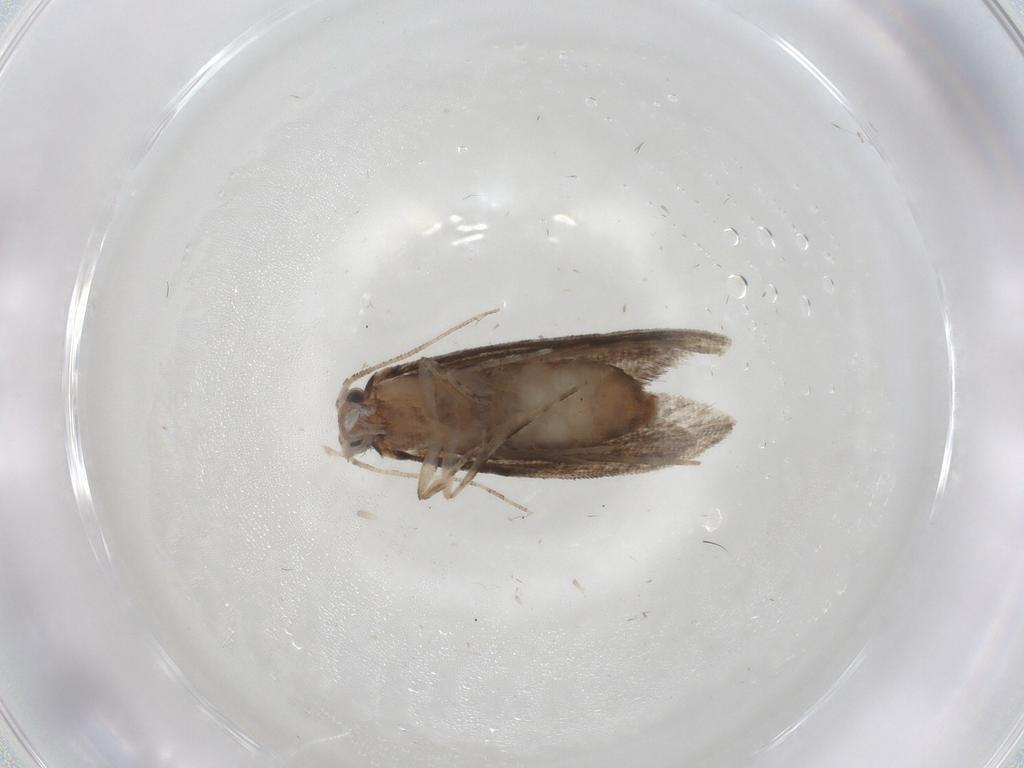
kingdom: Animalia
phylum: Arthropoda
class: Insecta
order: Lepidoptera
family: Tineidae
